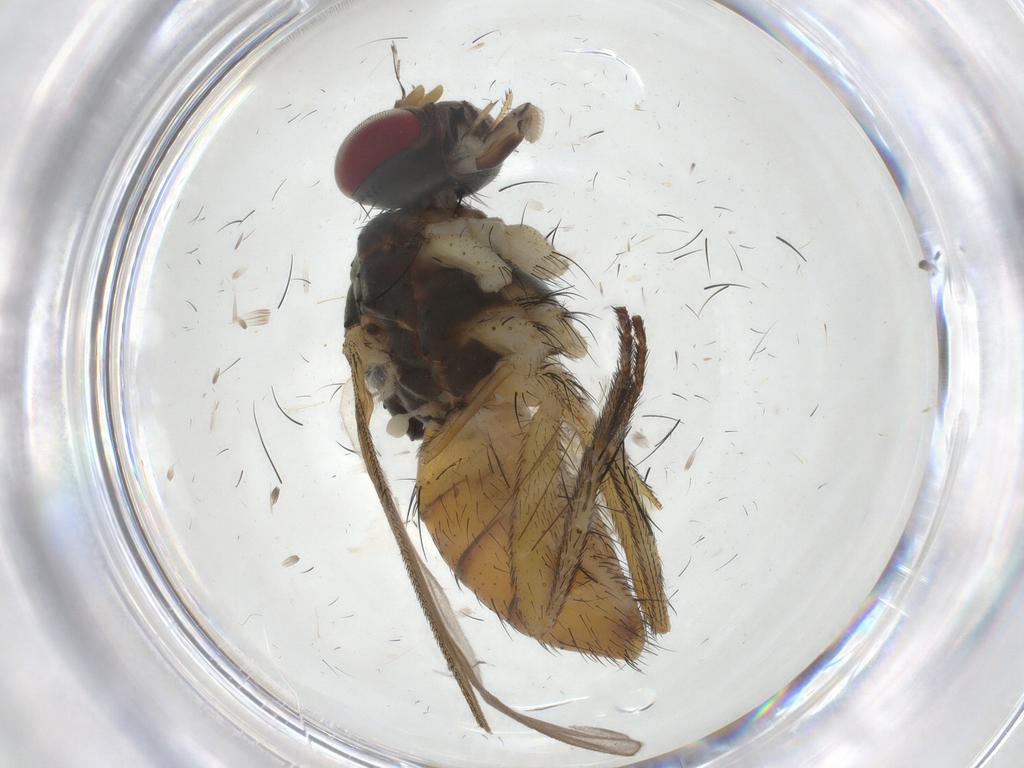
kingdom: Animalia
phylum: Arthropoda
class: Insecta
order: Diptera
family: Muscidae
